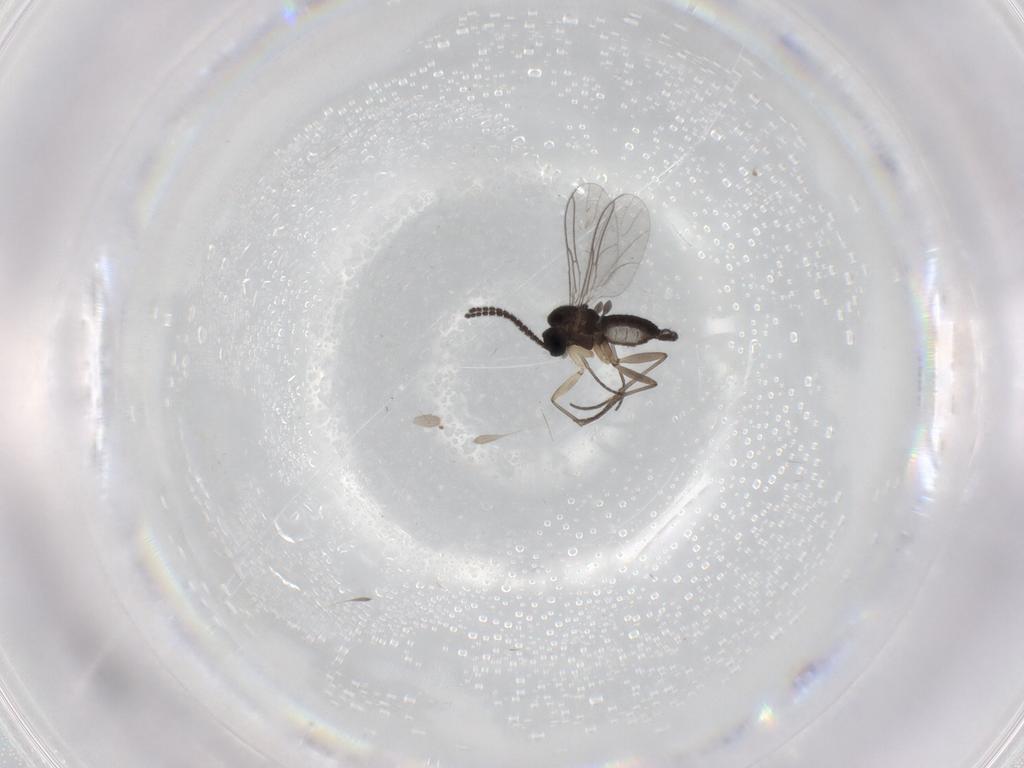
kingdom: Animalia
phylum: Arthropoda
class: Insecta
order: Diptera
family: Sciaridae
